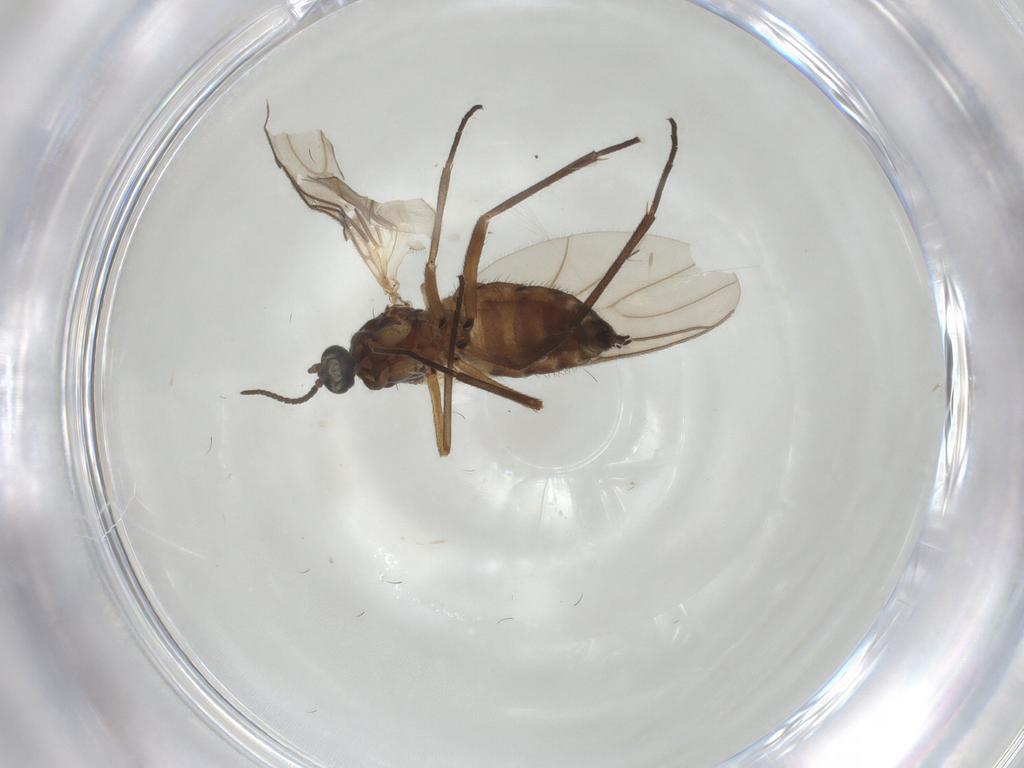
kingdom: Animalia
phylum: Arthropoda
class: Insecta
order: Diptera
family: Sciaridae
